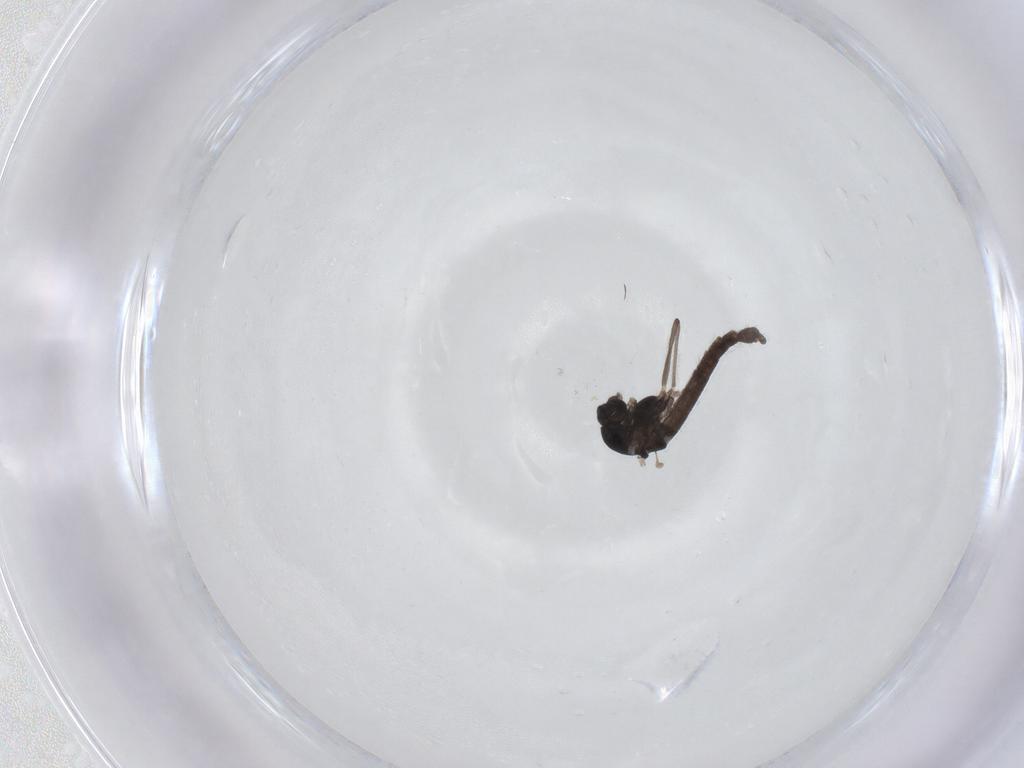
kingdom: Animalia
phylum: Arthropoda
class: Insecta
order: Diptera
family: Chironomidae
